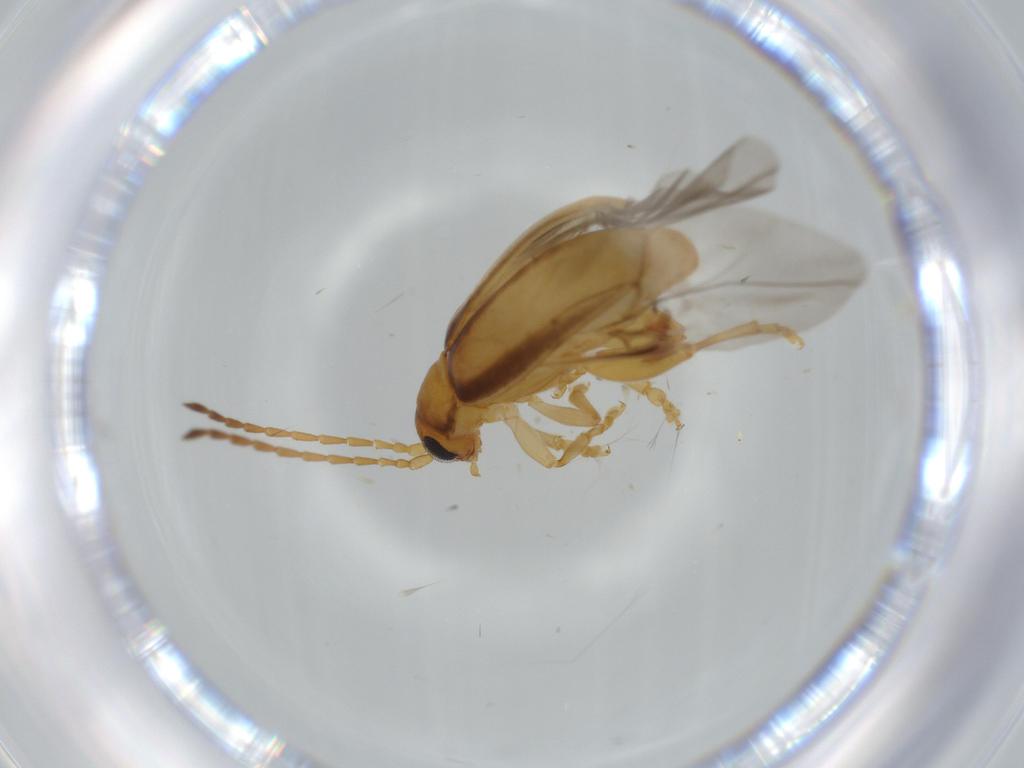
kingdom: Animalia
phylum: Arthropoda
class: Insecta
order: Coleoptera
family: Chrysomelidae
